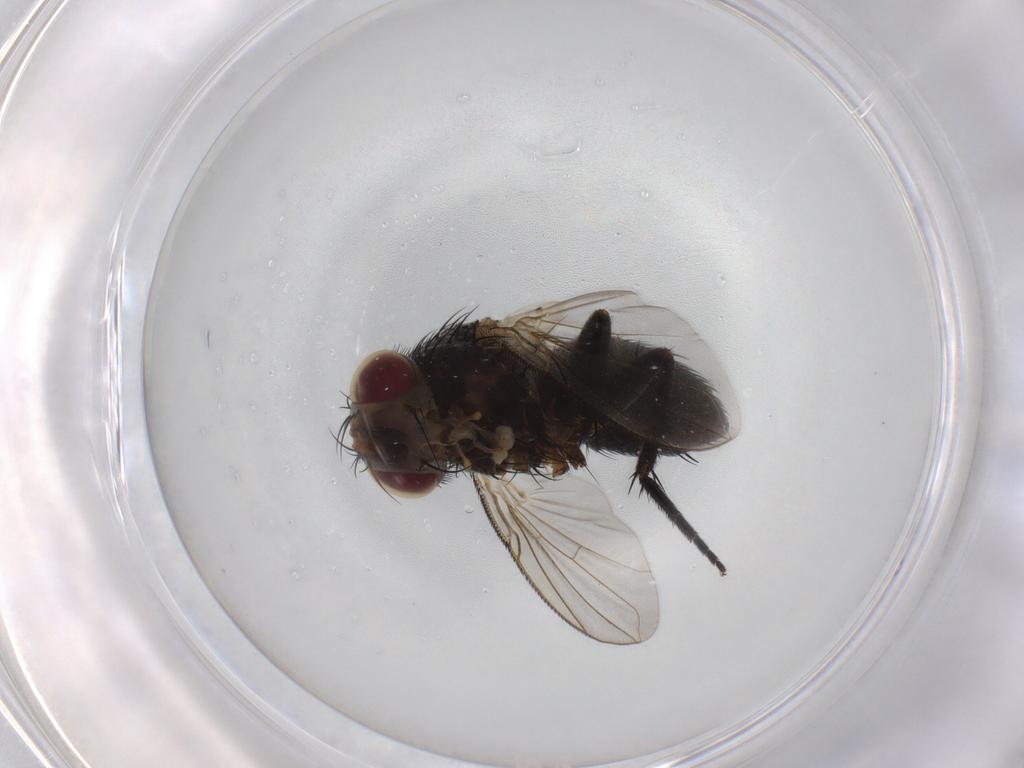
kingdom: Animalia
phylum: Arthropoda
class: Insecta
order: Diptera
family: Tachinidae
